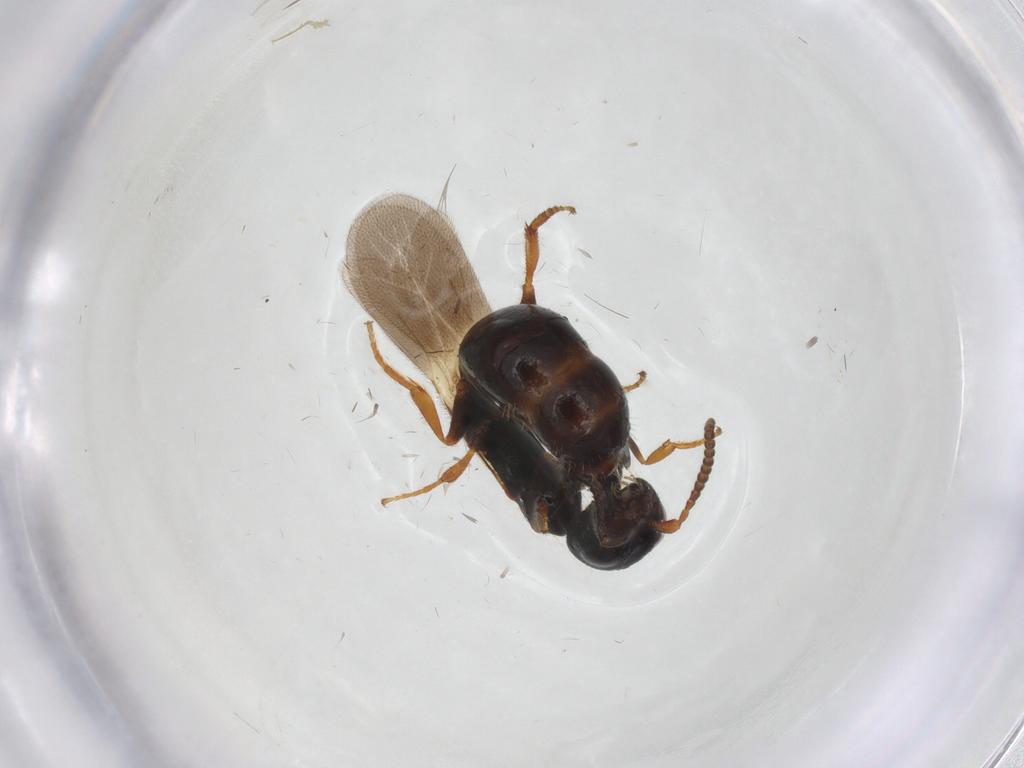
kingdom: Animalia
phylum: Arthropoda
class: Insecta
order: Hymenoptera
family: Bethylidae
